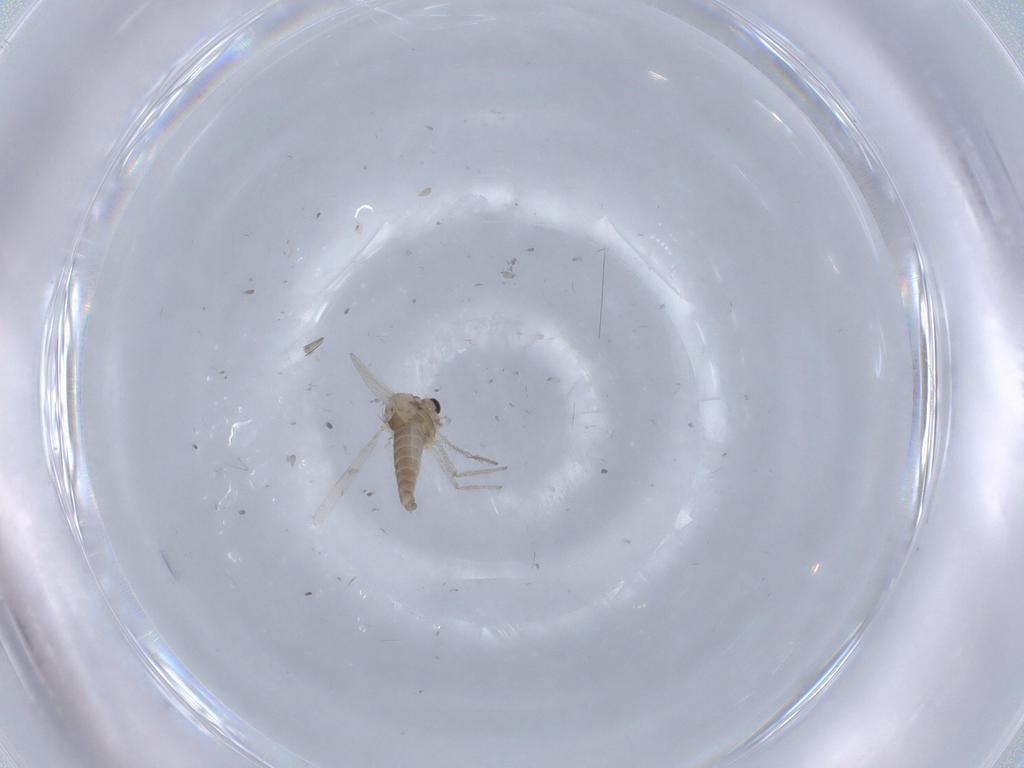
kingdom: Animalia
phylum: Arthropoda
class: Insecta
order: Diptera
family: Chironomidae
